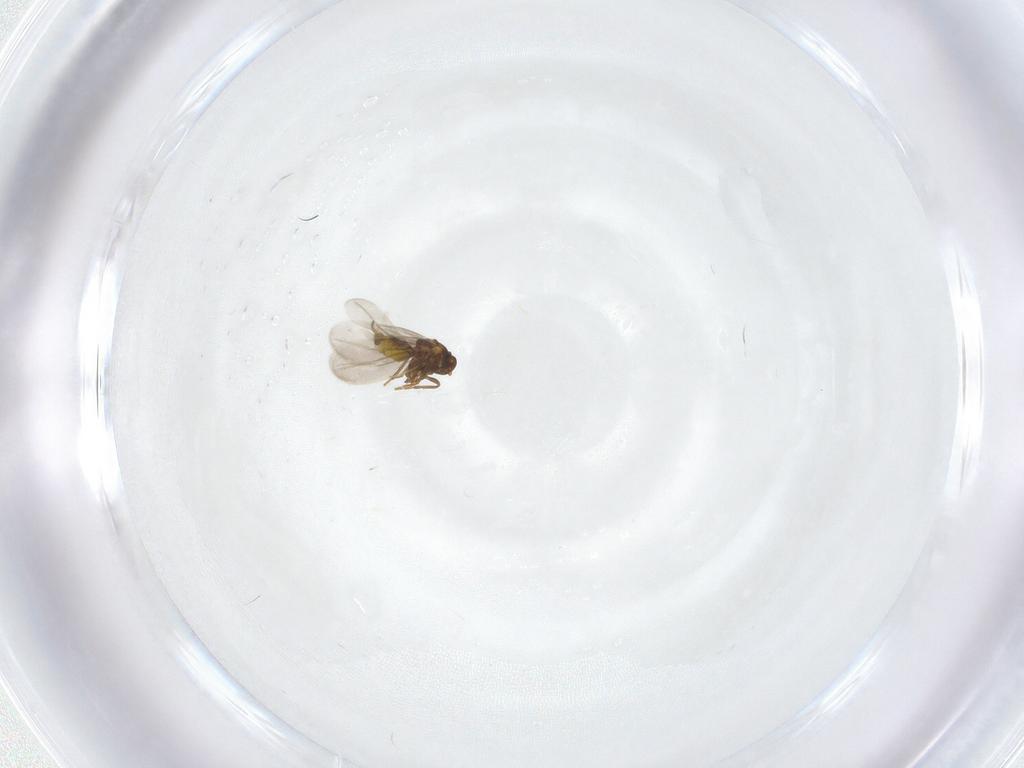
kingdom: Animalia
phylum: Arthropoda
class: Insecta
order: Hemiptera
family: Aleyrodidae
